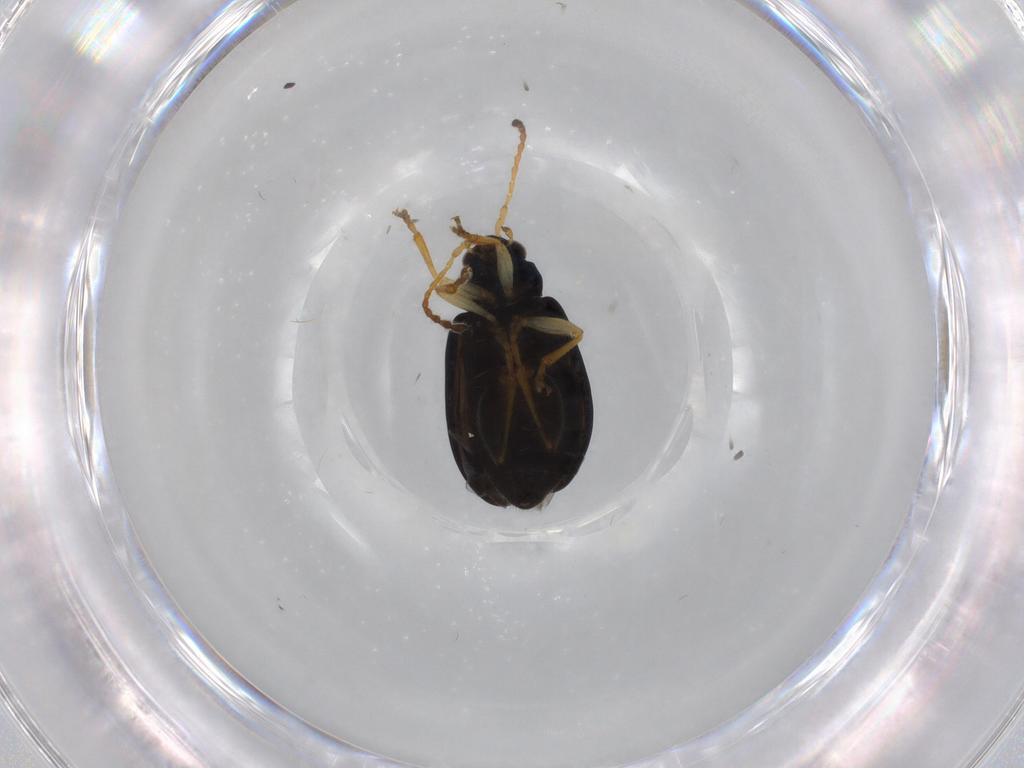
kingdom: Animalia
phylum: Arthropoda
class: Insecta
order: Coleoptera
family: Chrysomelidae
